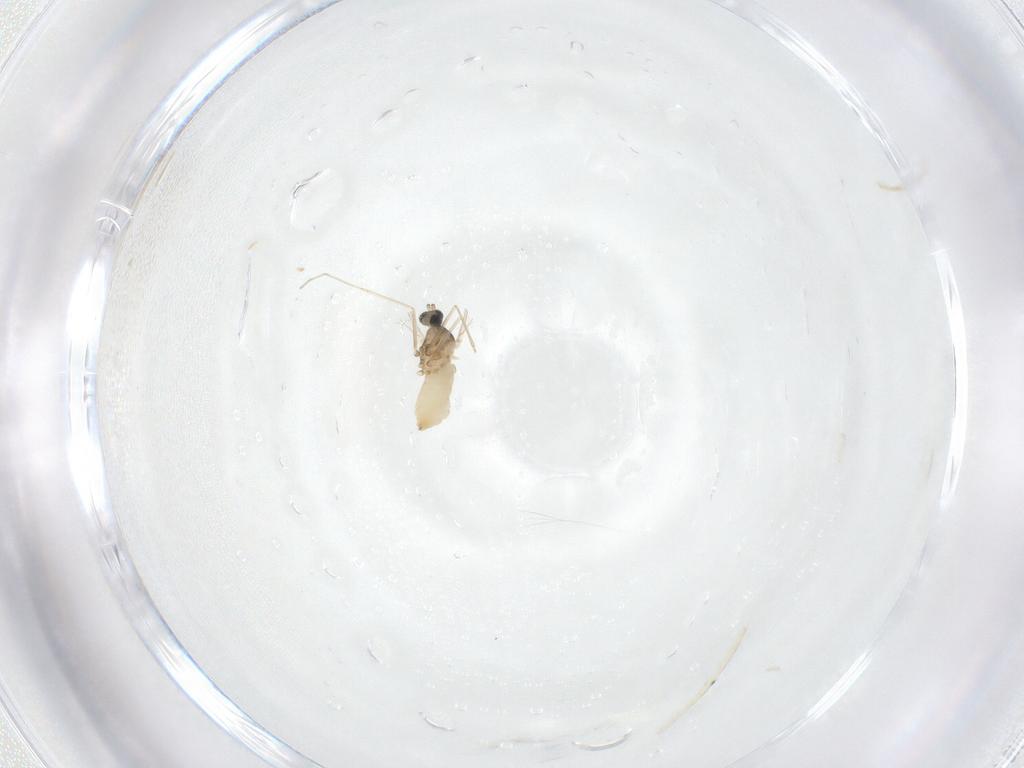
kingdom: Animalia
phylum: Arthropoda
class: Insecta
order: Diptera
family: Cecidomyiidae
